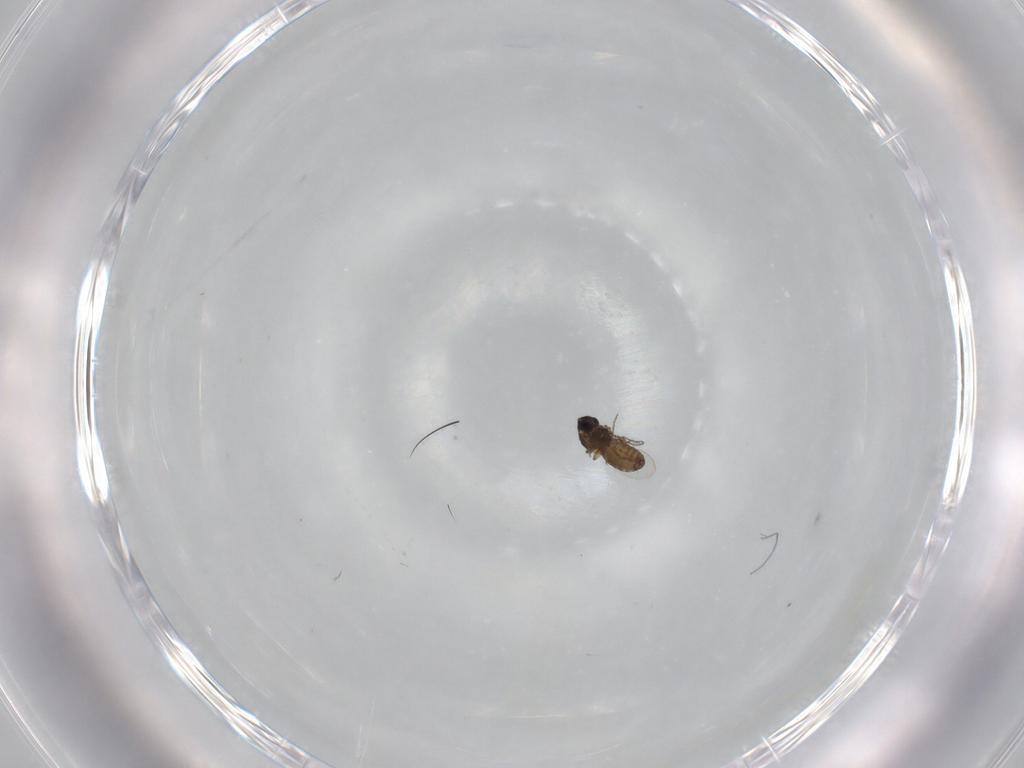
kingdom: Animalia
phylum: Arthropoda
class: Insecta
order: Diptera
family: Ceratopogonidae
